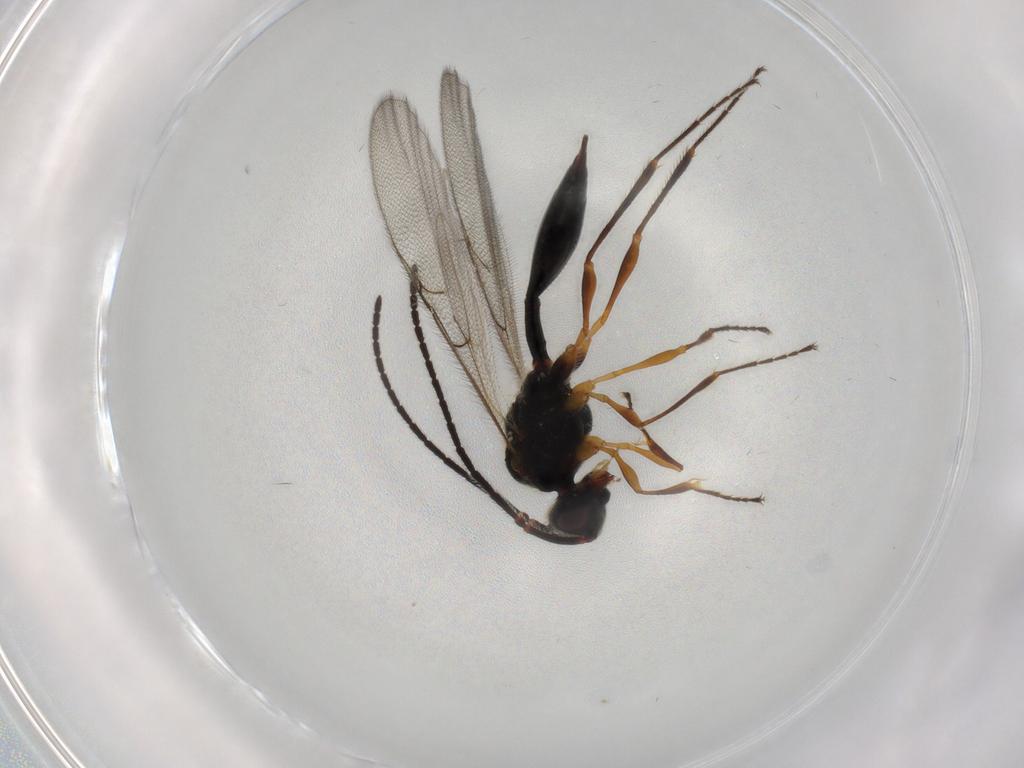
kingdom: Animalia
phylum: Arthropoda
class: Insecta
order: Hymenoptera
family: Diapriidae
